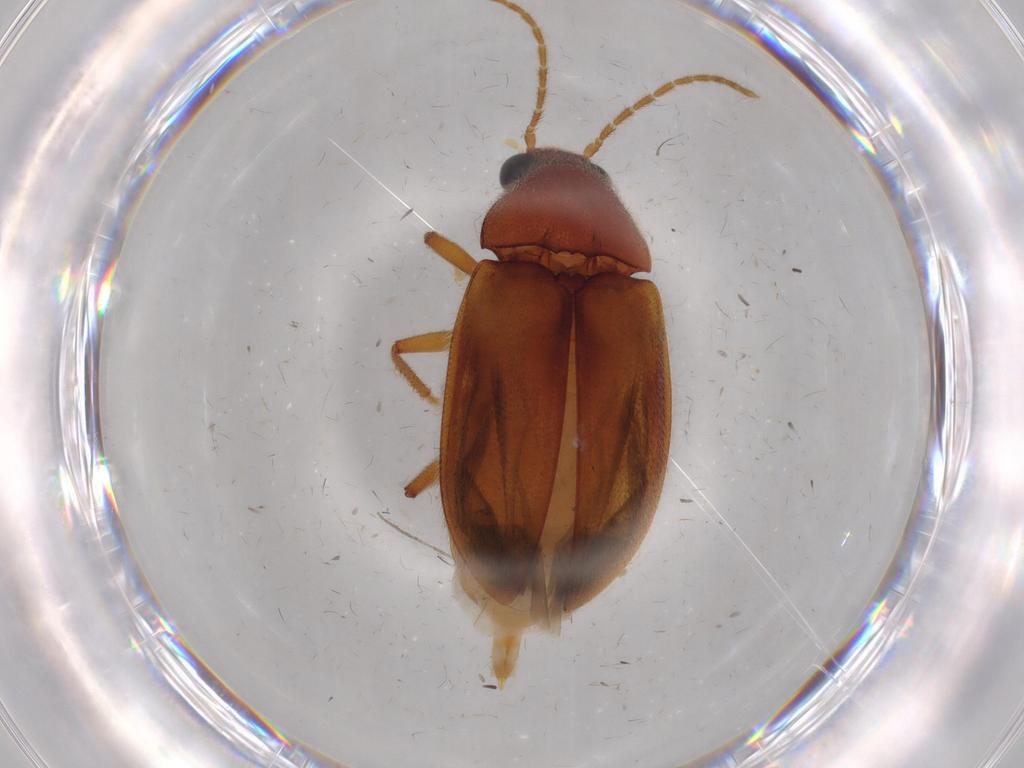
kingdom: Animalia
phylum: Arthropoda
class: Insecta
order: Coleoptera
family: Ptilodactylidae
